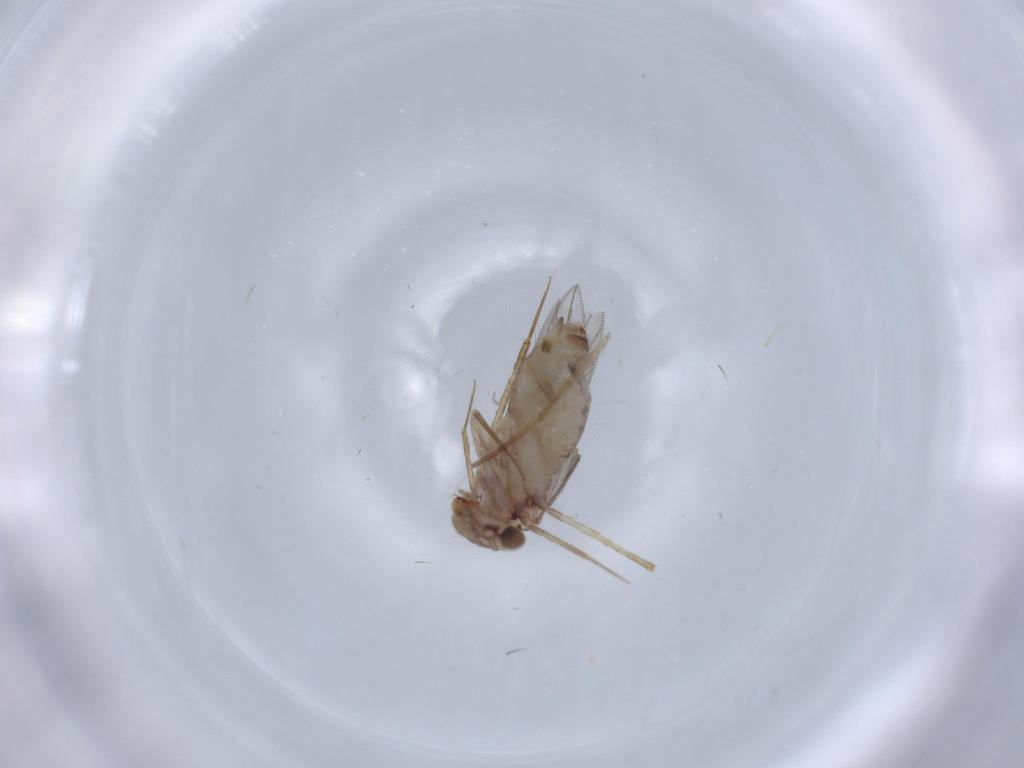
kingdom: Animalia
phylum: Arthropoda
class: Insecta
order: Psocodea
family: Lepidopsocidae
